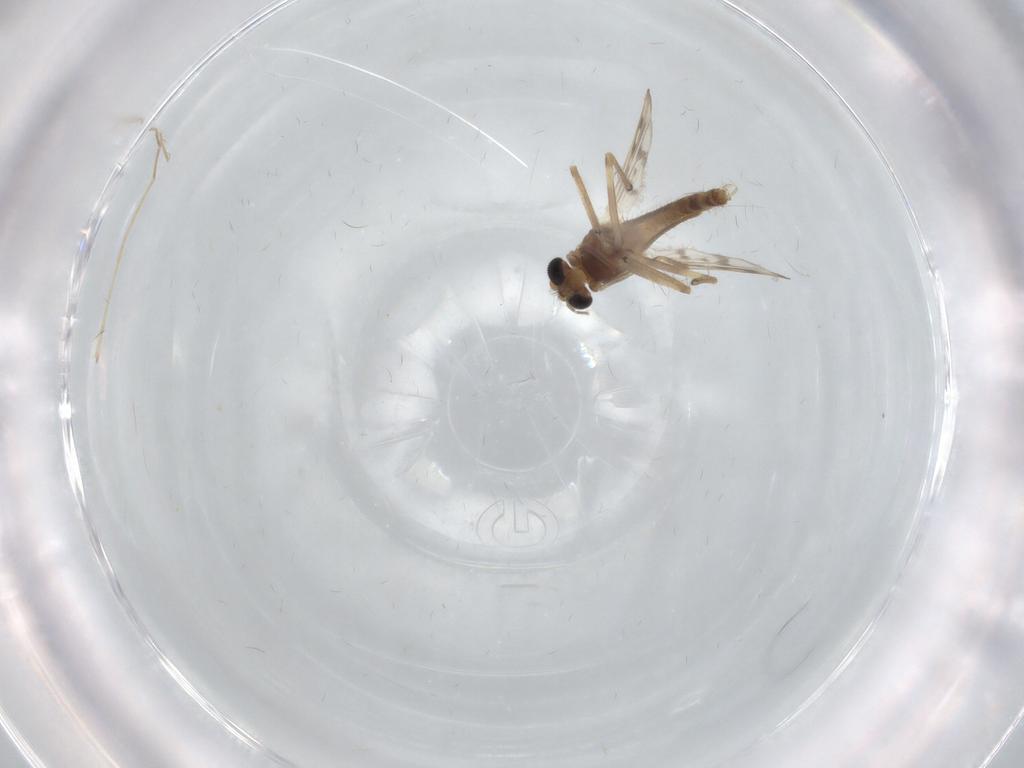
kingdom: Animalia
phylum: Arthropoda
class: Insecta
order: Diptera
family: Chironomidae
